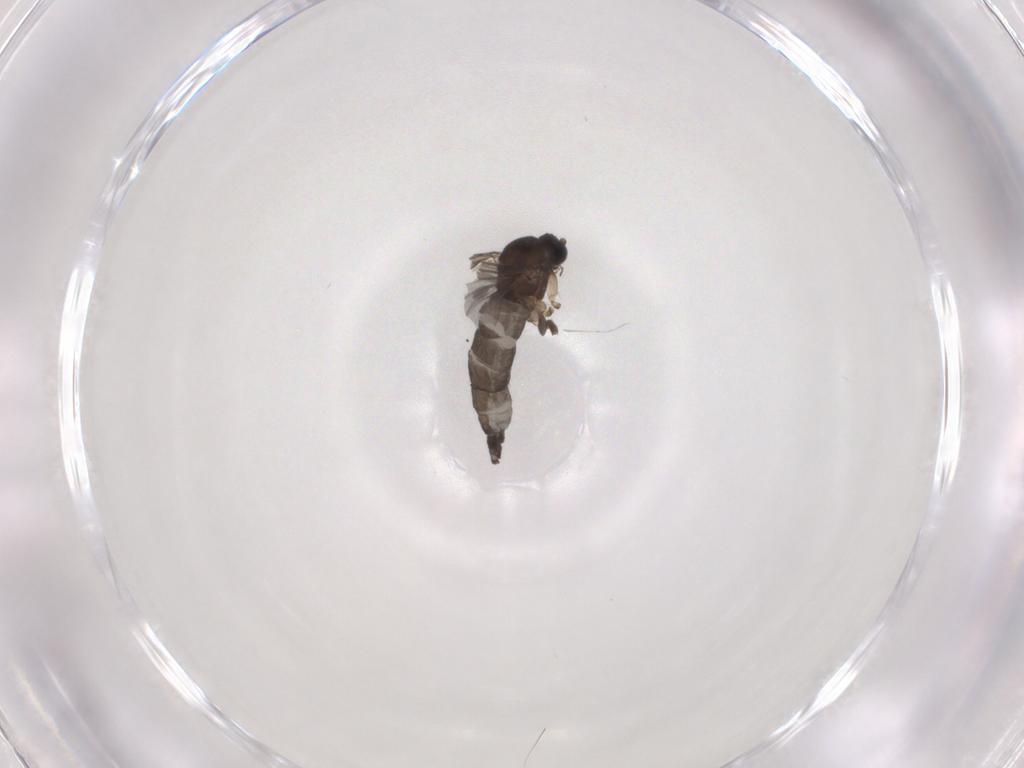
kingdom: Animalia
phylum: Arthropoda
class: Insecta
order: Diptera
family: Sciaridae
